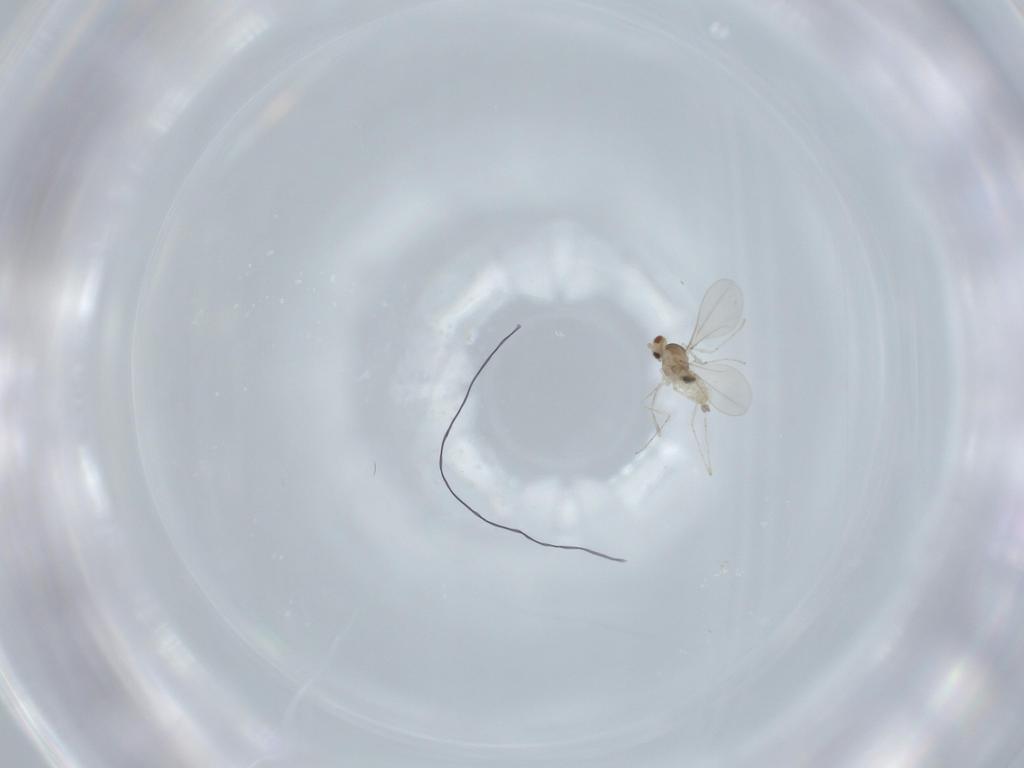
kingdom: Animalia
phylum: Arthropoda
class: Insecta
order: Diptera
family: Cecidomyiidae
